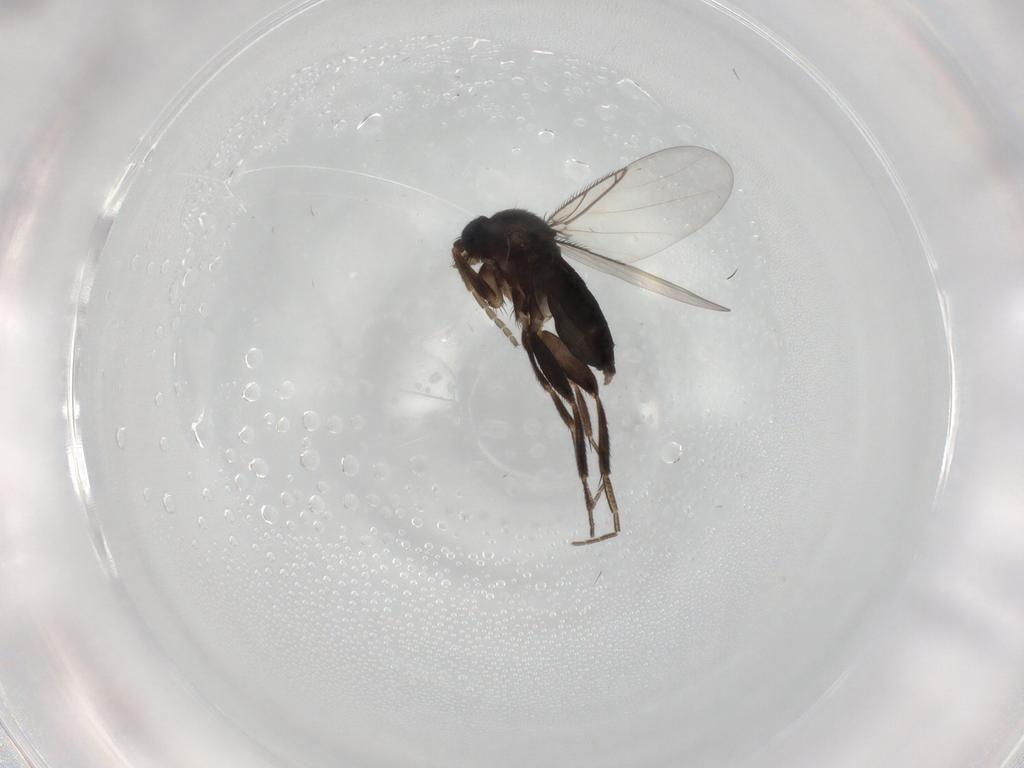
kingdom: Animalia
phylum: Arthropoda
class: Insecta
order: Diptera
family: Phoridae
